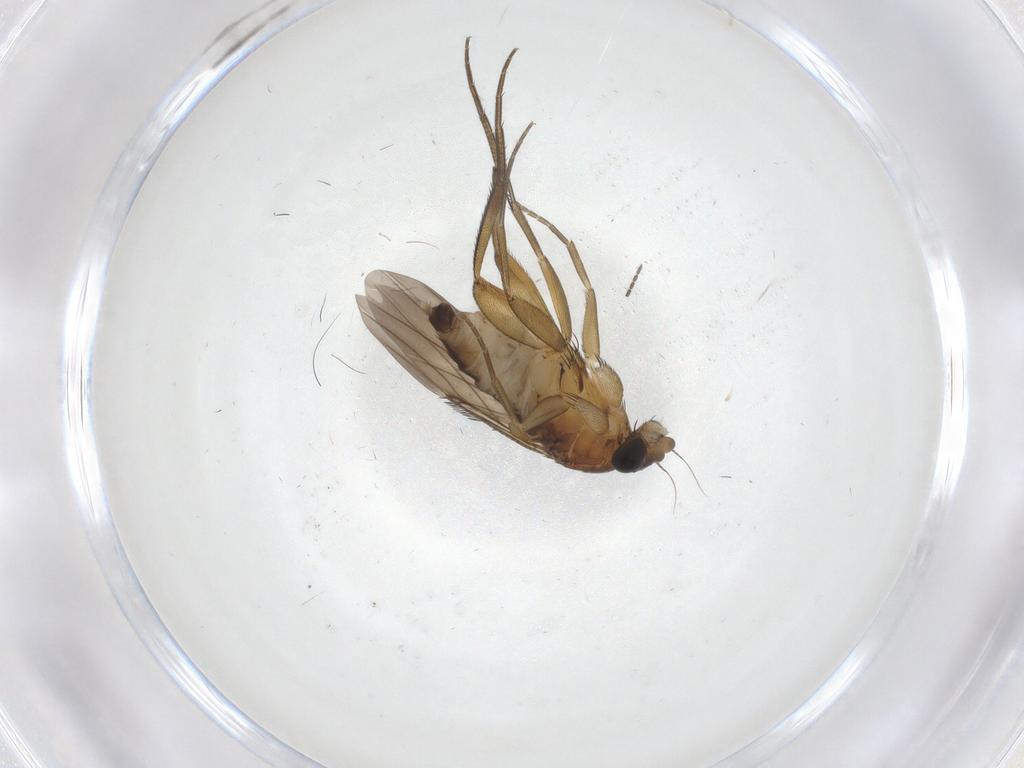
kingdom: Animalia
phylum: Arthropoda
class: Insecta
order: Diptera
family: Phoridae
